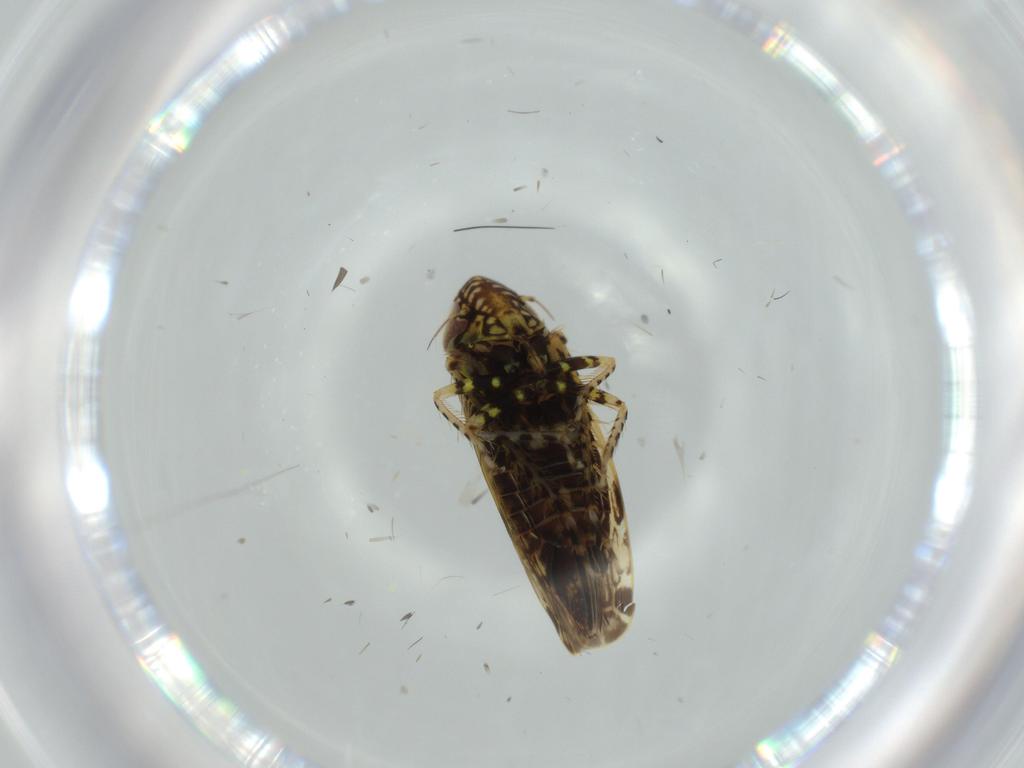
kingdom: Animalia
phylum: Arthropoda
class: Insecta
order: Hemiptera
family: Cicadellidae
